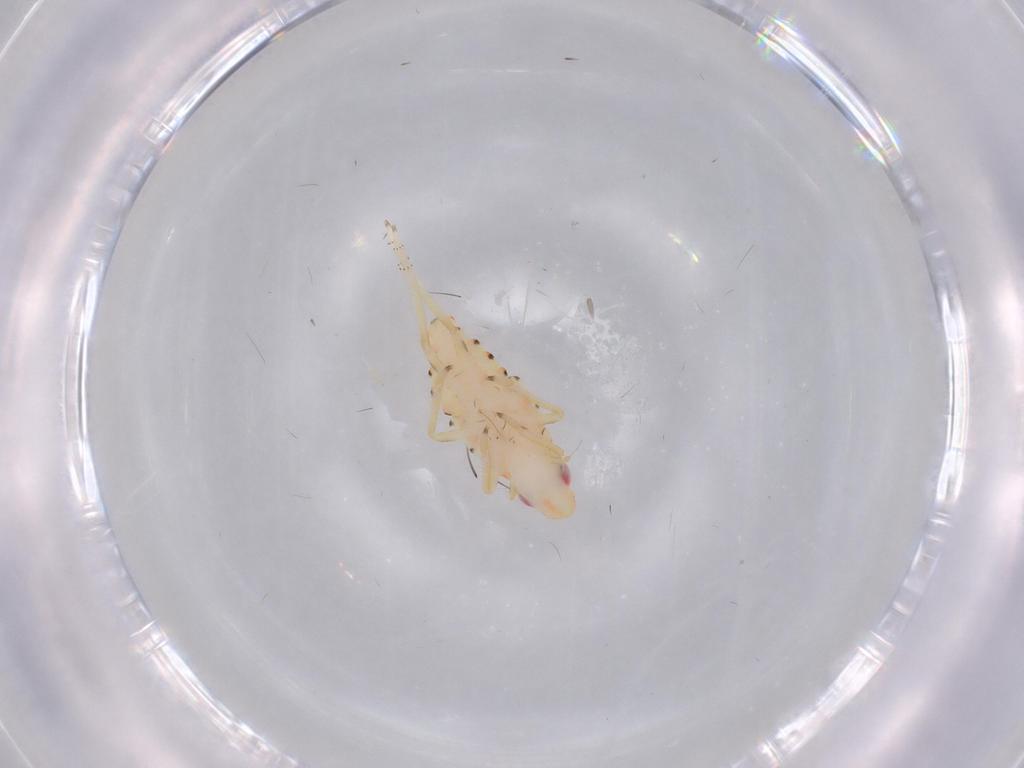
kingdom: Animalia
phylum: Arthropoda
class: Insecta
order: Hemiptera
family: Tropiduchidae
